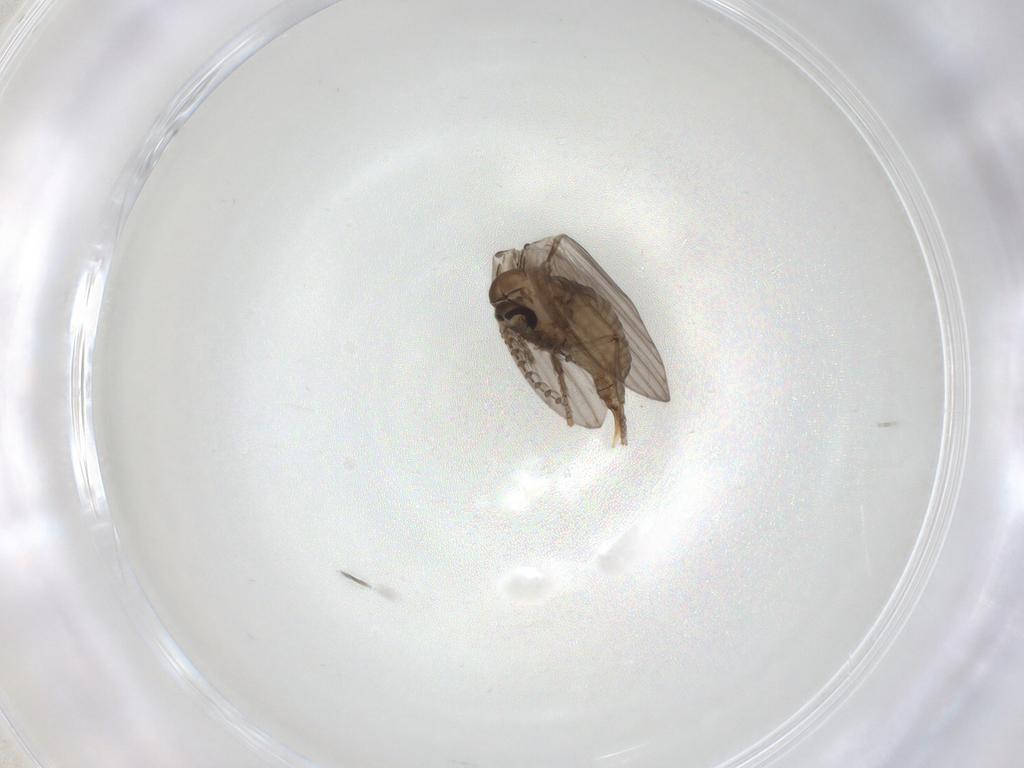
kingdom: Animalia
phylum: Arthropoda
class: Insecta
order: Diptera
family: Psychodidae
